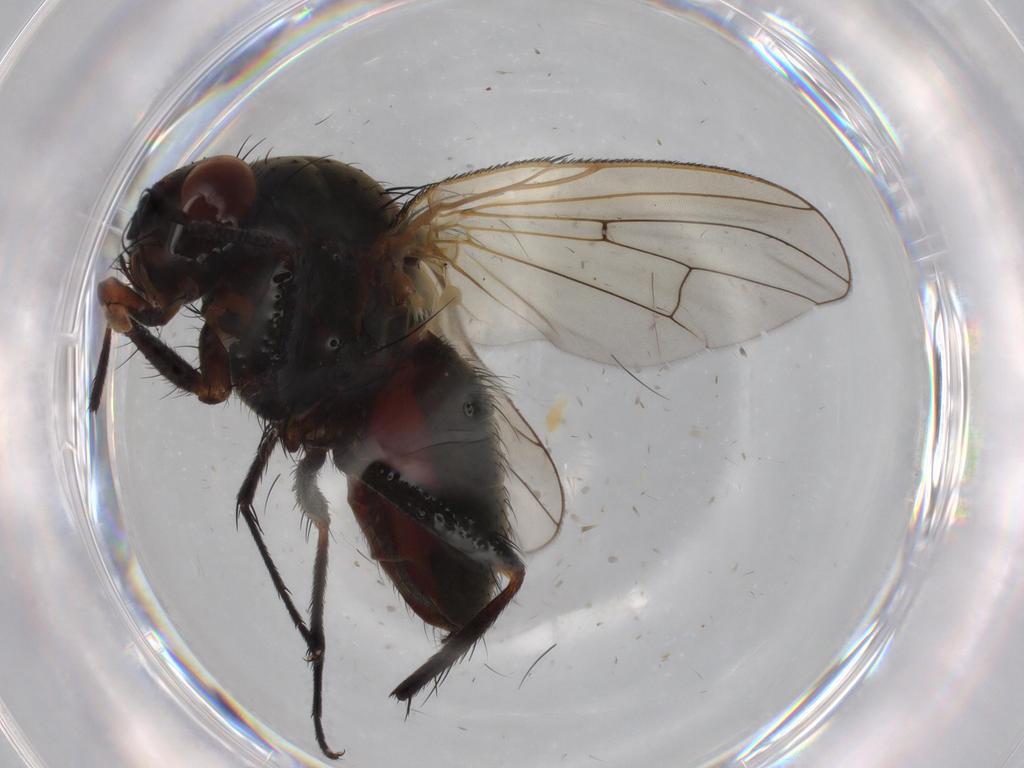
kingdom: Animalia
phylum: Arthropoda
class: Insecta
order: Diptera
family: Anthomyiidae
